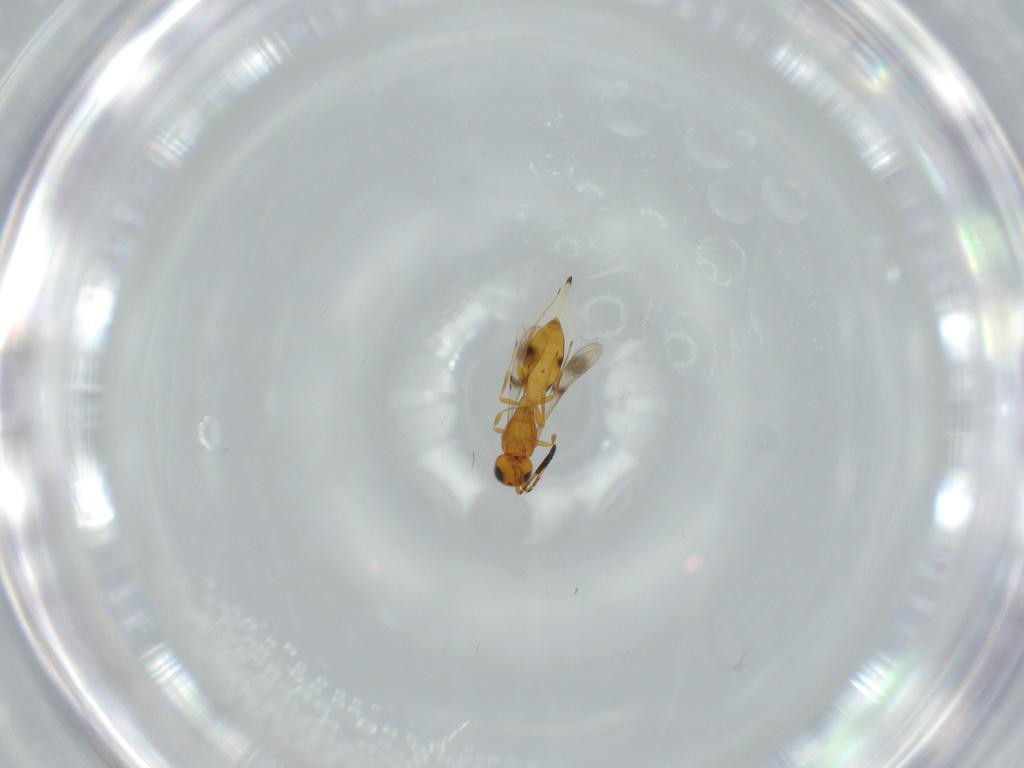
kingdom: Animalia
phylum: Arthropoda
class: Insecta
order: Hymenoptera
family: Scelionidae
